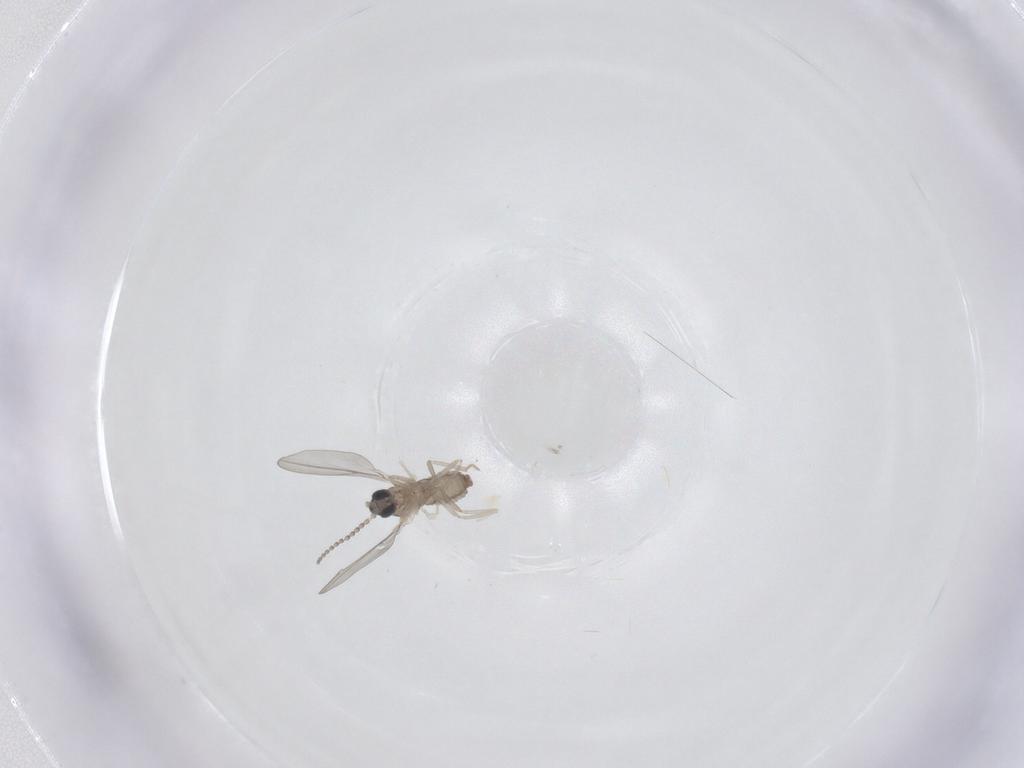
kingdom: Animalia
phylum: Arthropoda
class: Insecta
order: Diptera
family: Cecidomyiidae
